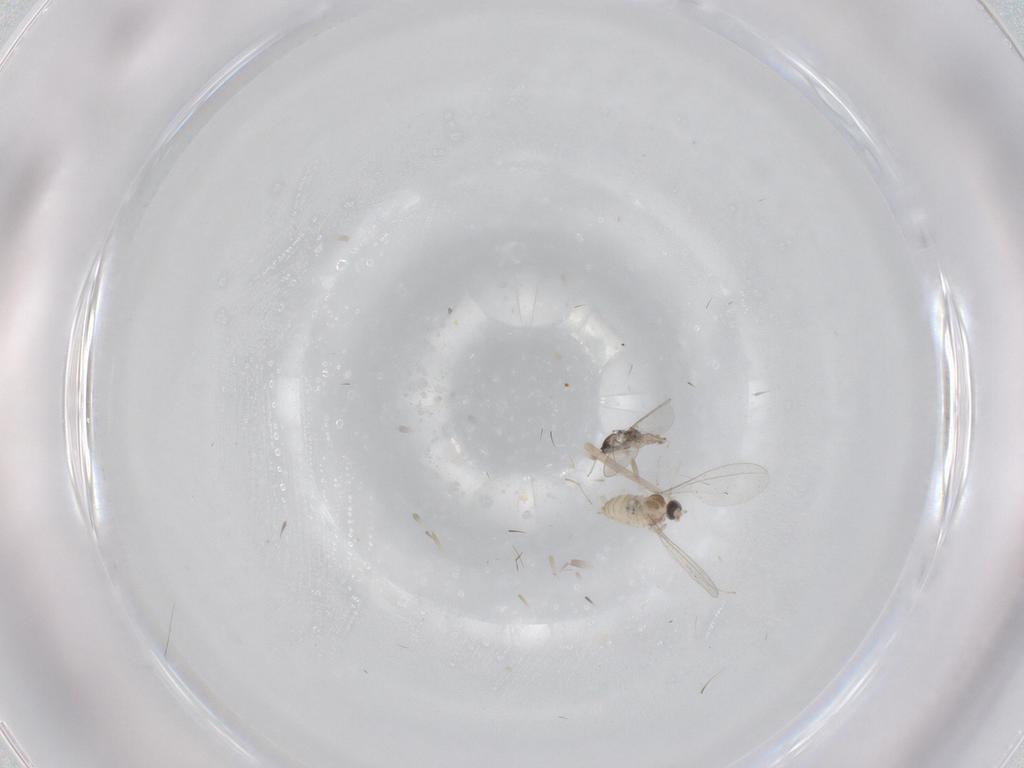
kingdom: Animalia
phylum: Arthropoda
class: Insecta
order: Diptera
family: Cecidomyiidae
